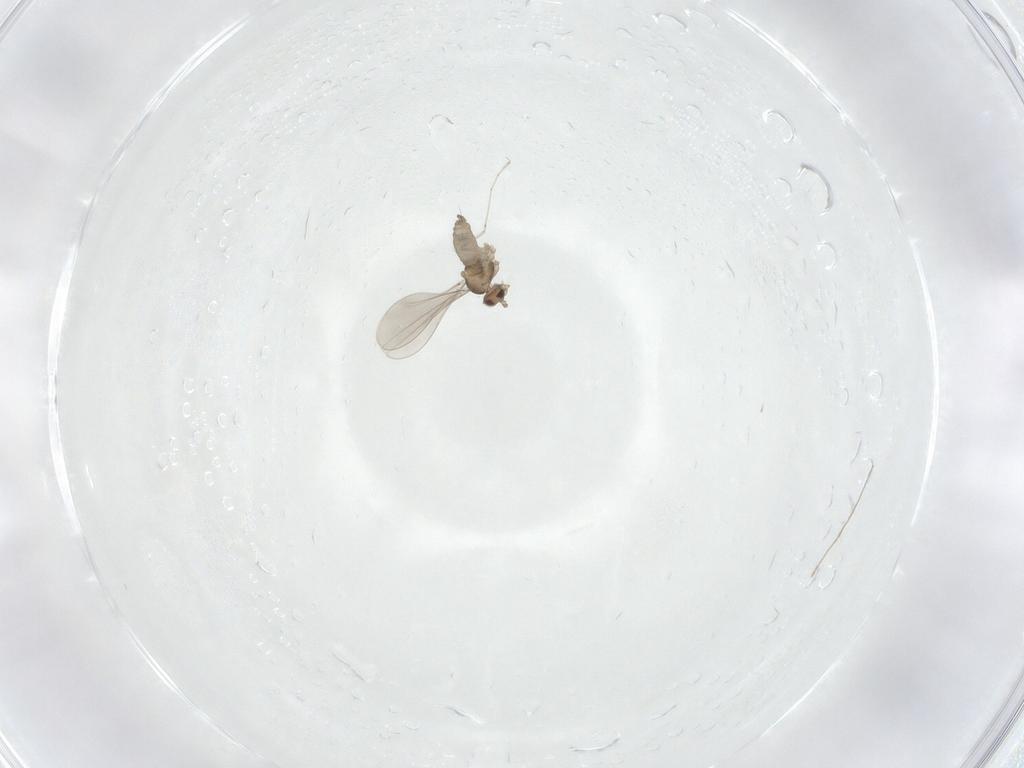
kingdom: Animalia
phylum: Arthropoda
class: Insecta
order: Diptera
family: Chironomidae
